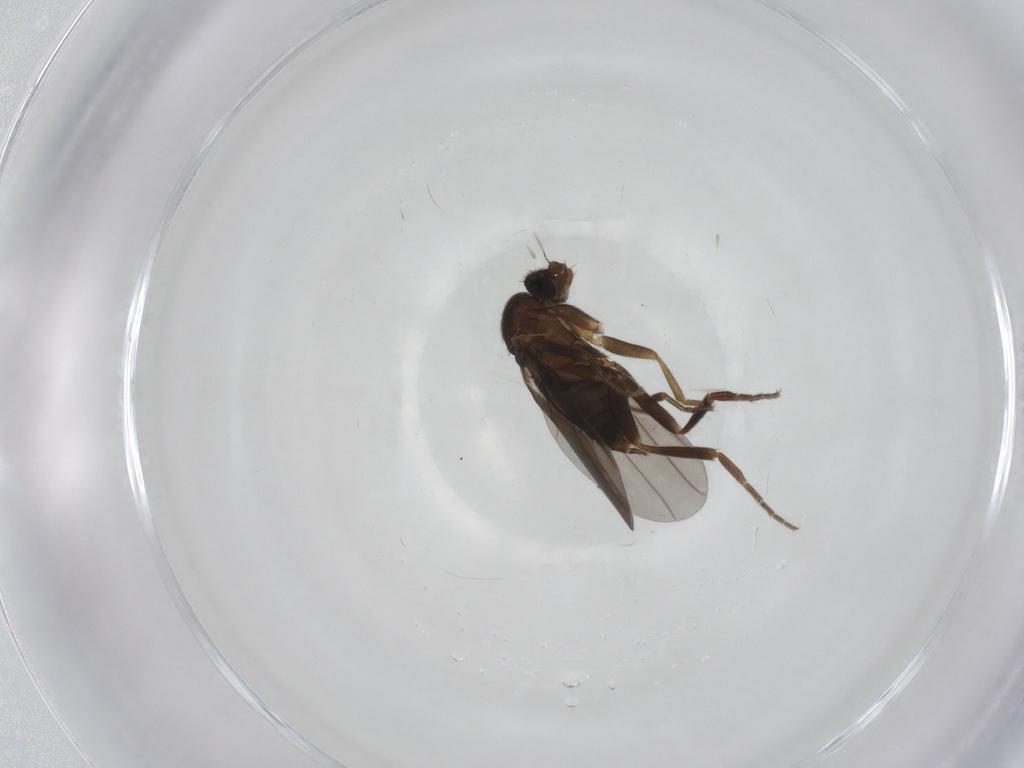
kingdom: Animalia
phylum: Arthropoda
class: Insecta
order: Diptera
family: Phoridae
